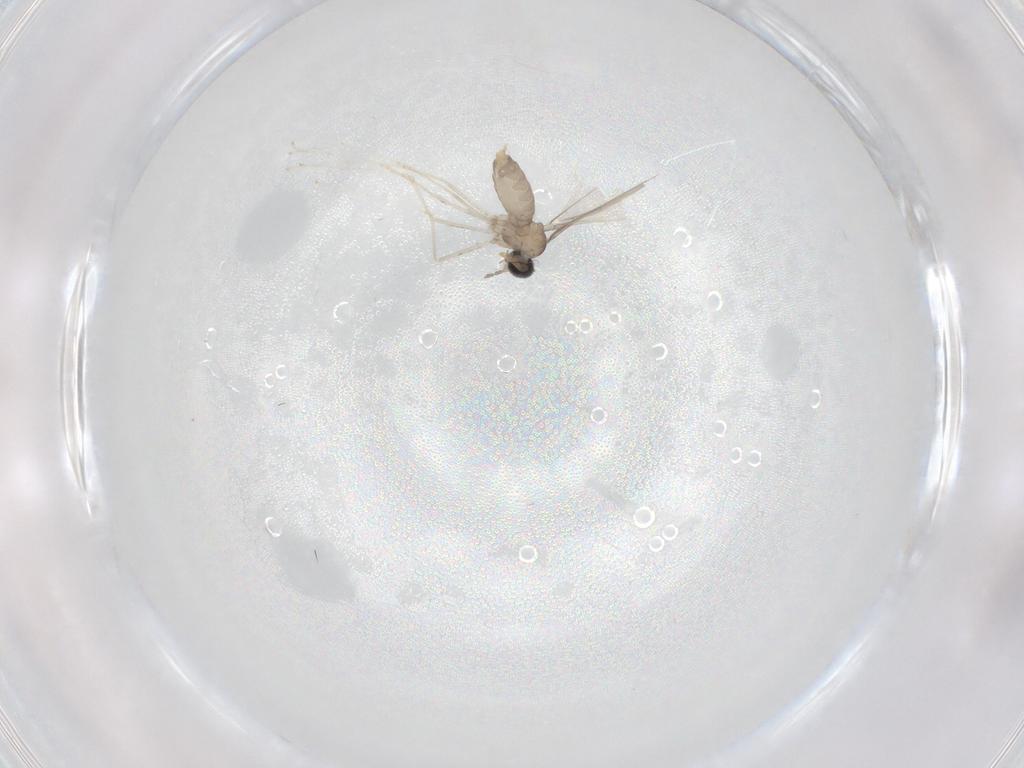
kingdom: Animalia
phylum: Arthropoda
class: Insecta
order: Diptera
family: Cecidomyiidae
